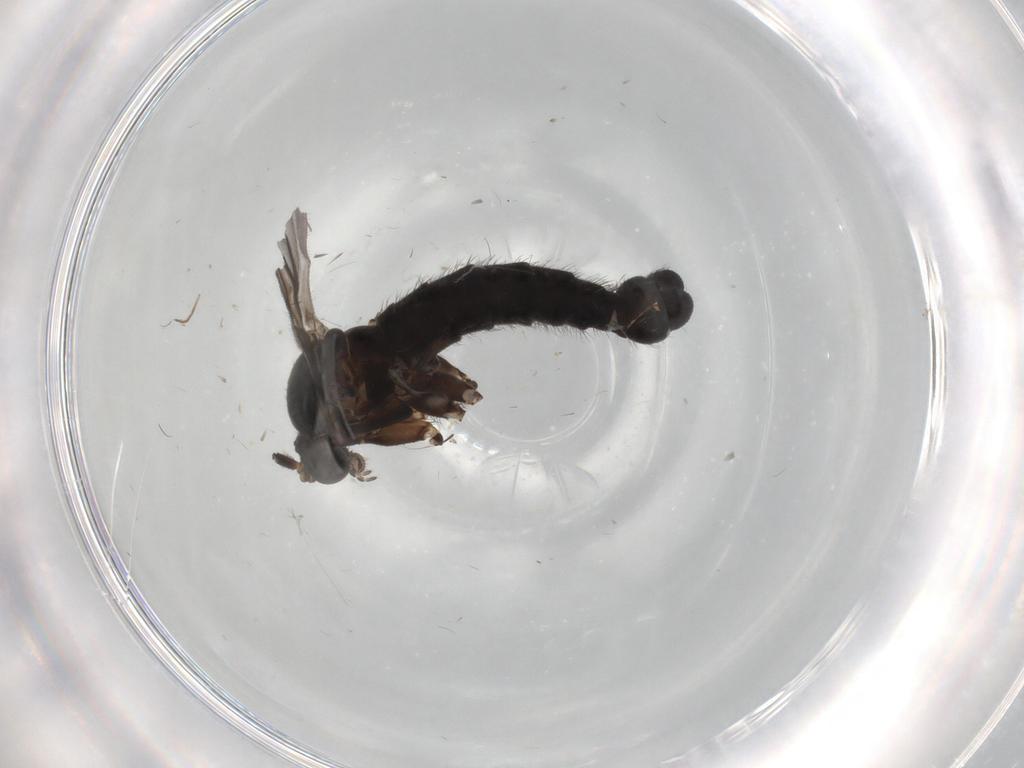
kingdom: Animalia
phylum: Arthropoda
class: Insecta
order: Diptera
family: Sciaridae
